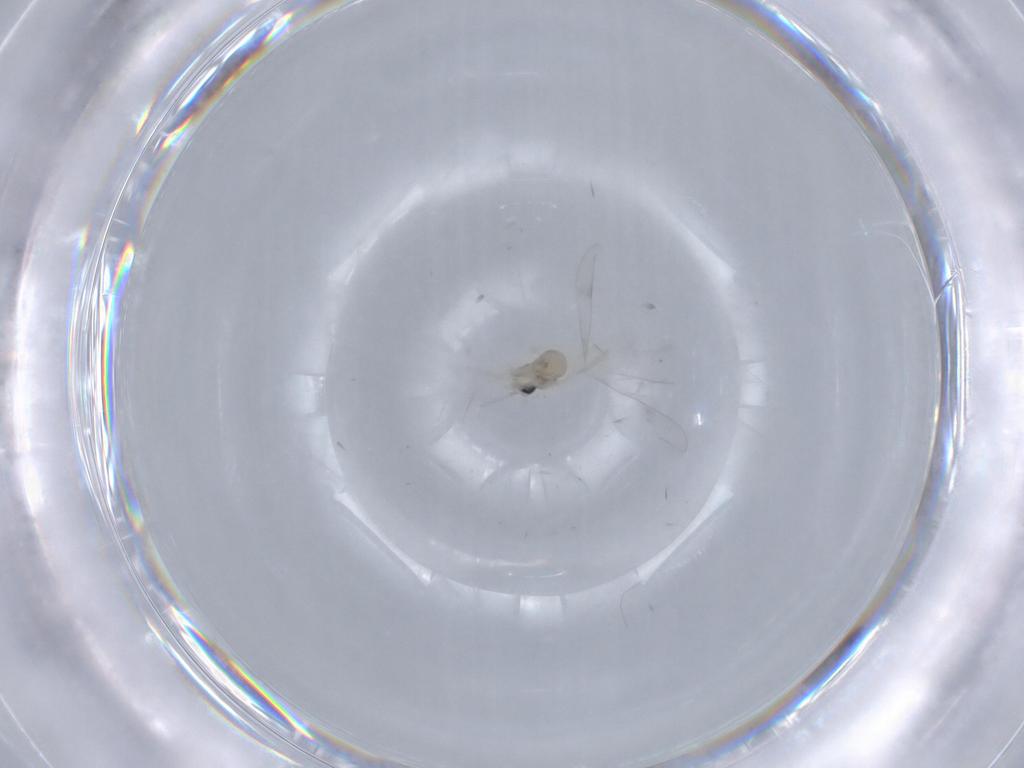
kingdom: Animalia
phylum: Arthropoda
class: Insecta
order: Diptera
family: Cecidomyiidae
